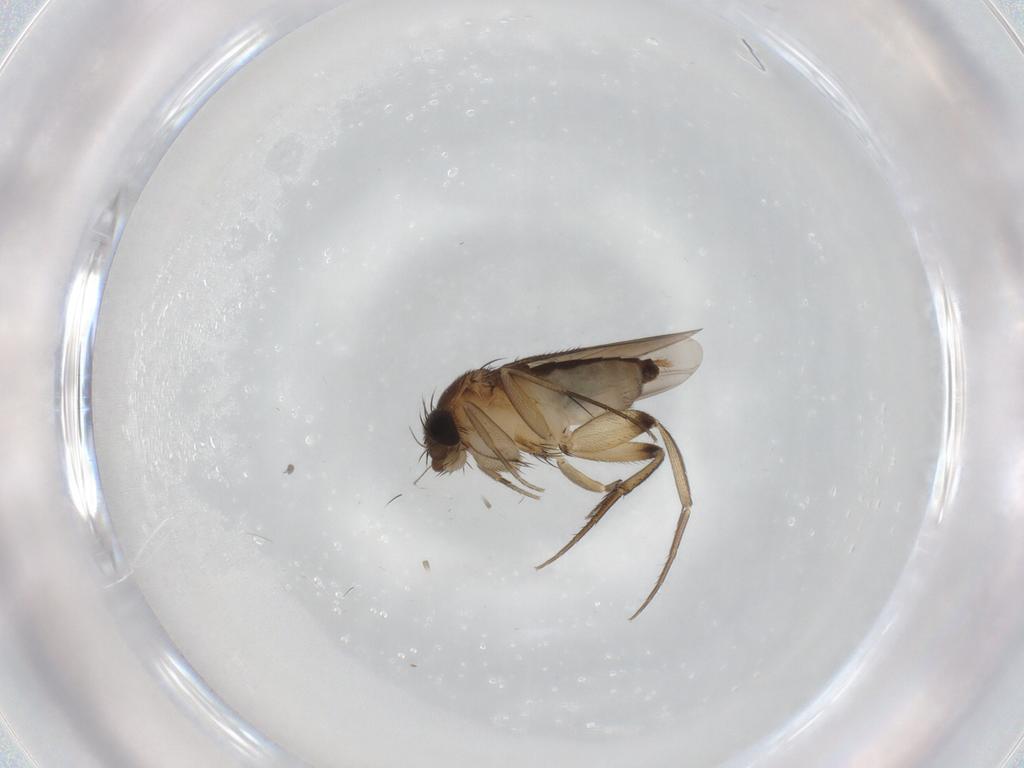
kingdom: Animalia
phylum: Arthropoda
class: Insecta
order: Diptera
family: Phoridae
